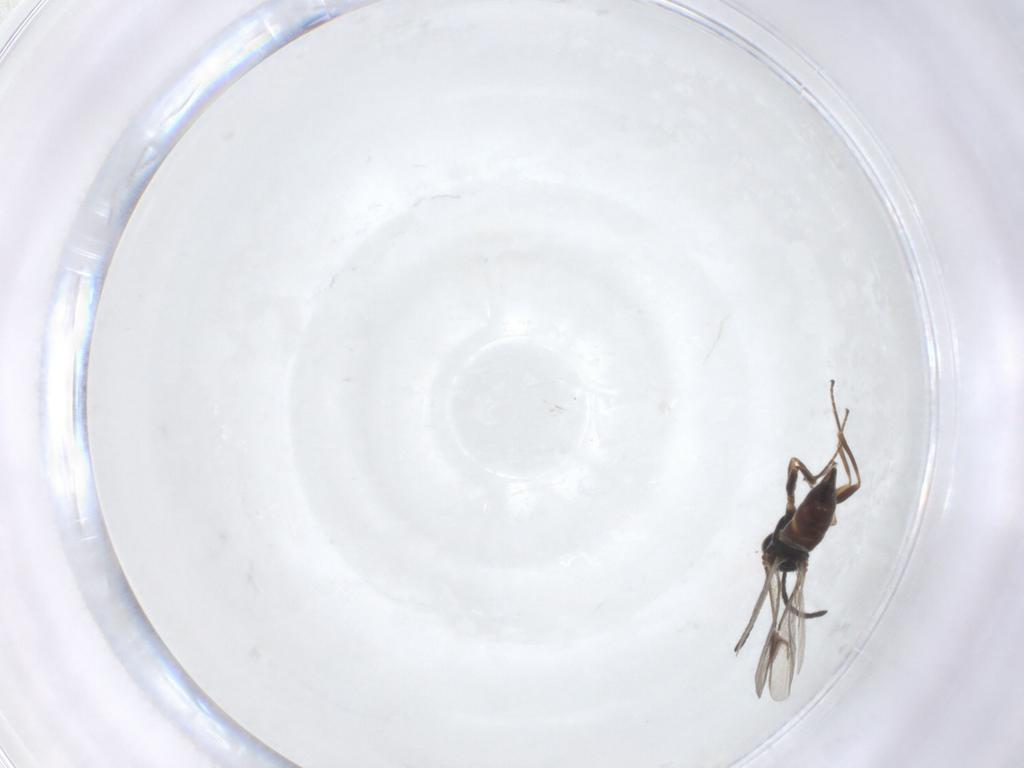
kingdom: Animalia
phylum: Arthropoda
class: Insecta
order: Hymenoptera
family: Braconidae
